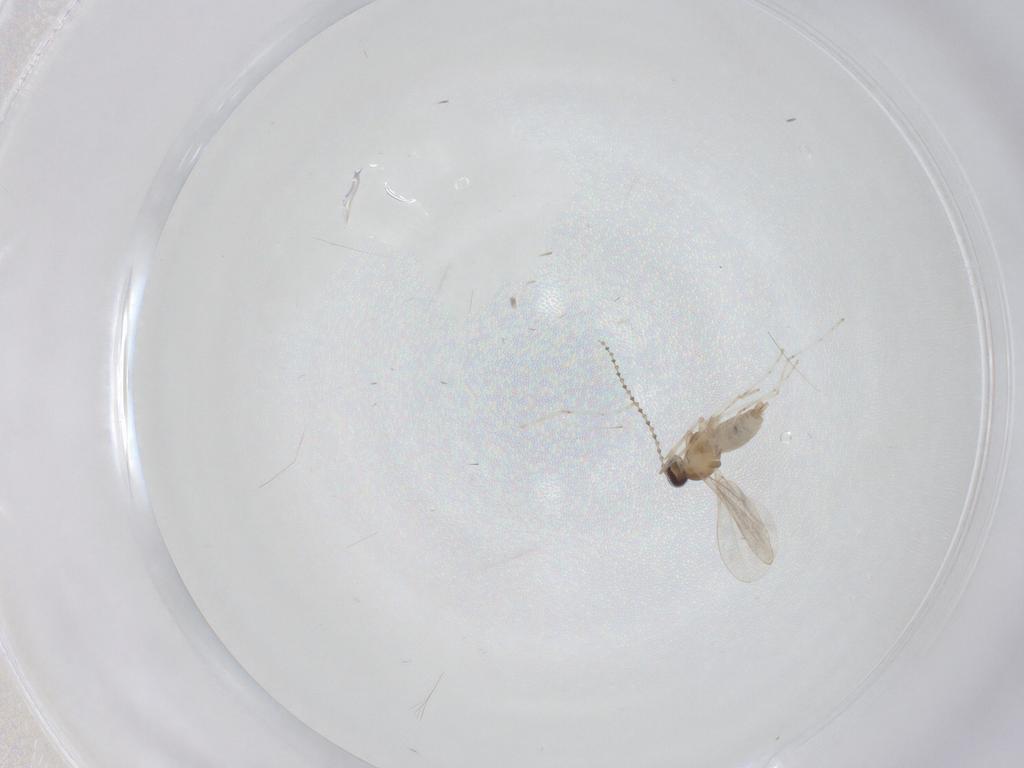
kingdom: Animalia
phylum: Arthropoda
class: Insecta
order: Diptera
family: Cecidomyiidae
